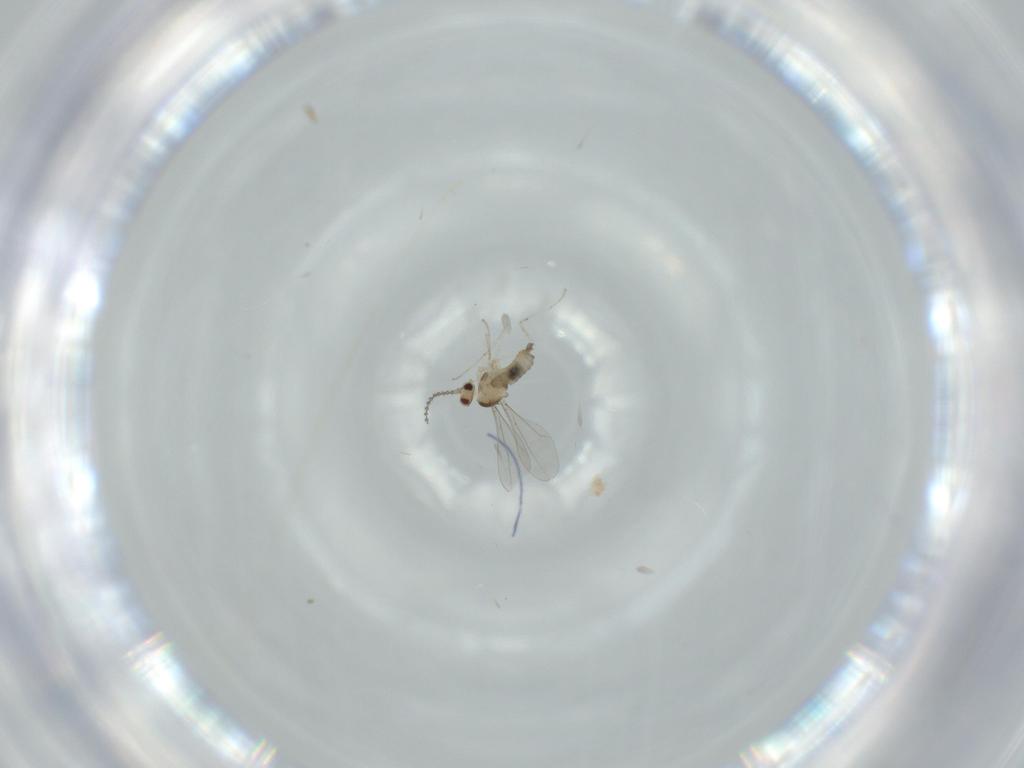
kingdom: Animalia
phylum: Arthropoda
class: Insecta
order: Diptera
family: Cecidomyiidae
